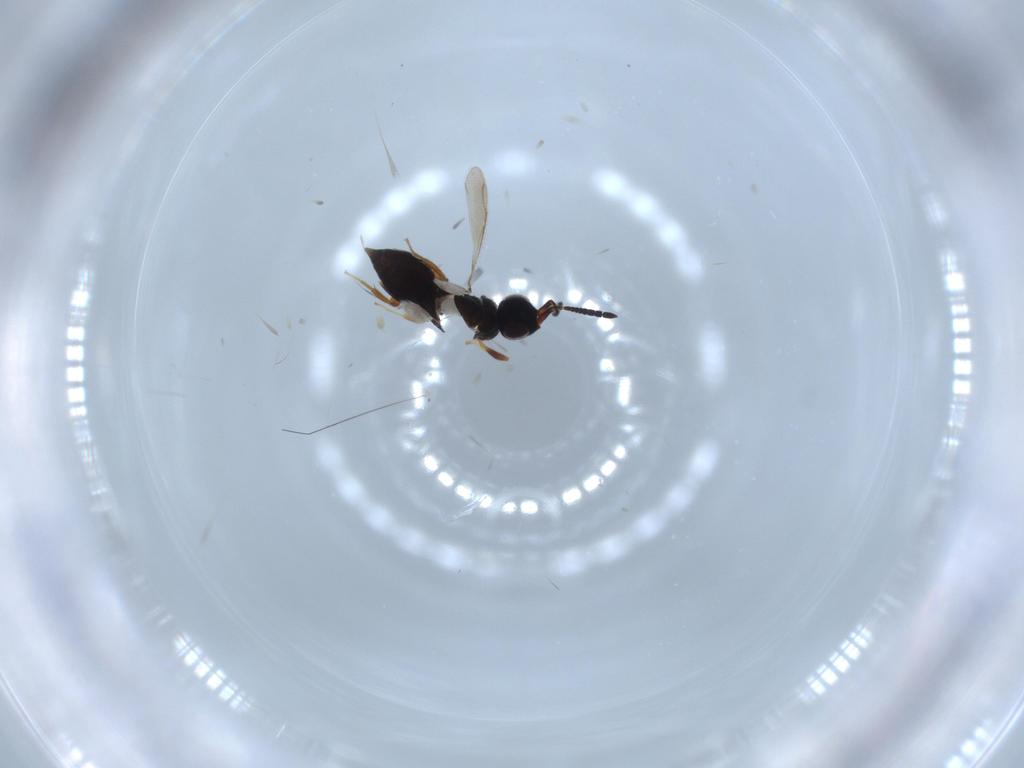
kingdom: Animalia
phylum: Arthropoda
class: Insecta
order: Hymenoptera
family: Ceraphronidae
